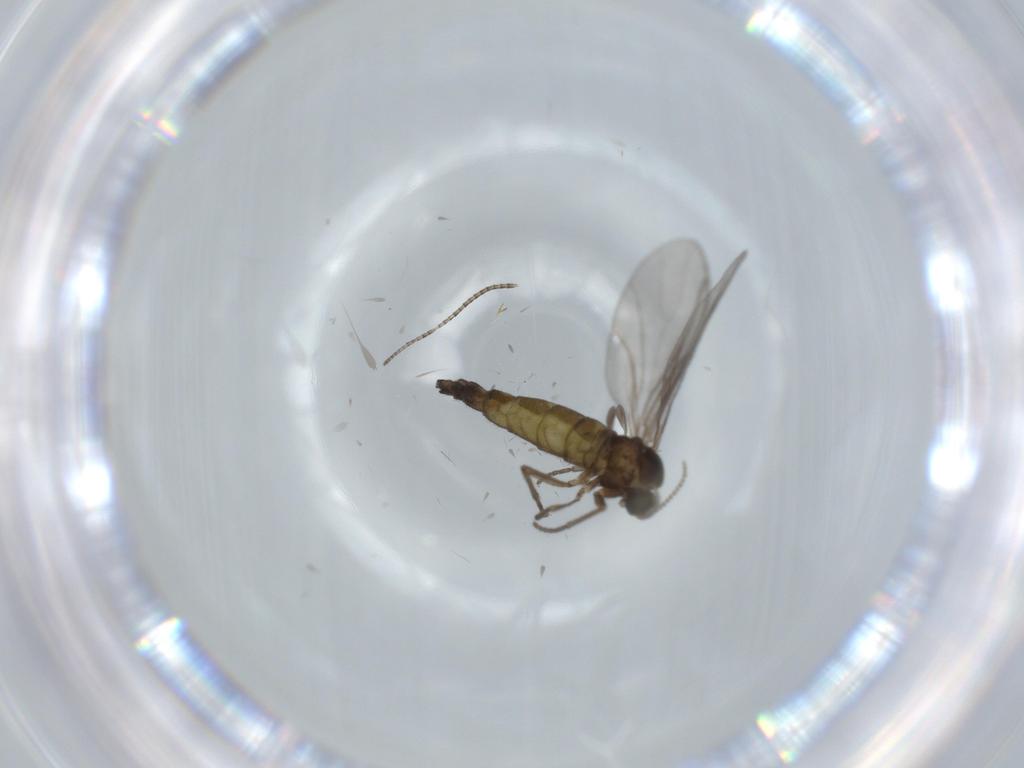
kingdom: Animalia
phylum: Arthropoda
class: Insecta
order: Diptera
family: Sciaridae
